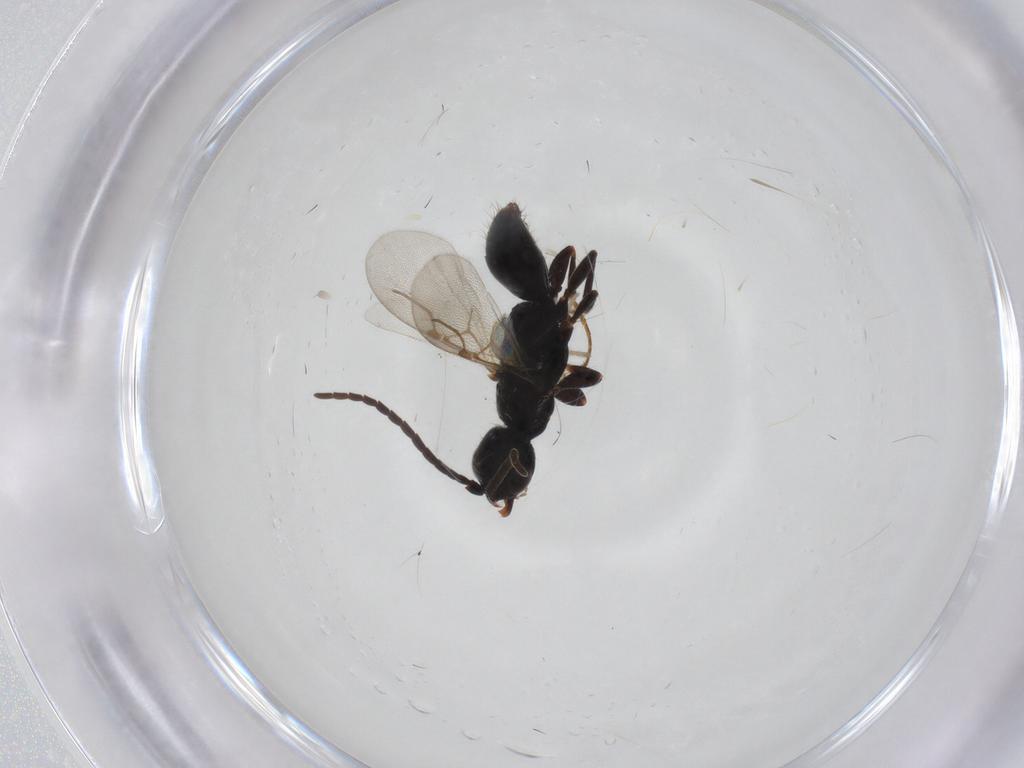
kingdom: Animalia
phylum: Arthropoda
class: Insecta
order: Hymenoptera
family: Bethylidae
